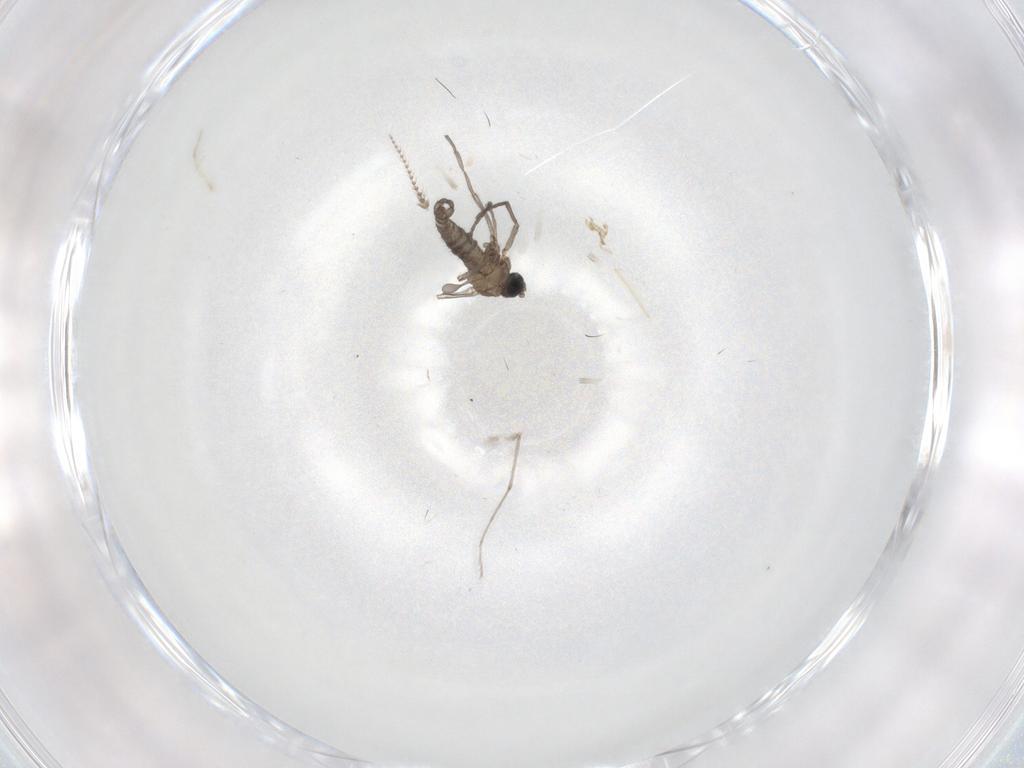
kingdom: Animalia
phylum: Arthropoda
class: Insecta
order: Diptera
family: Sciaridae
